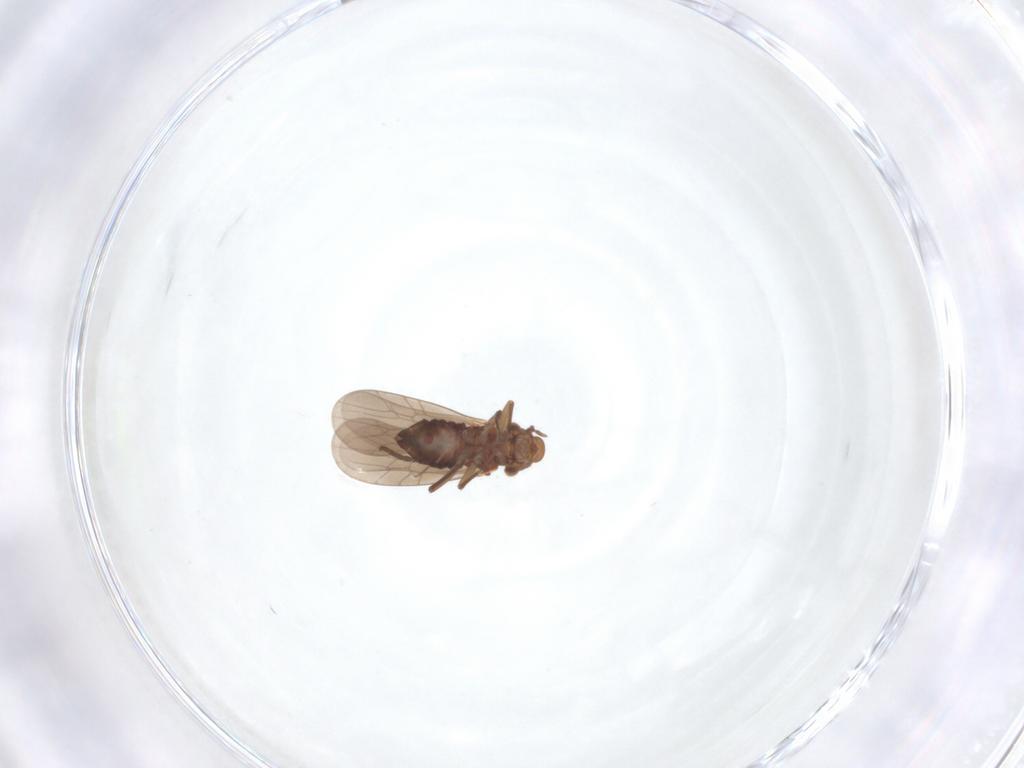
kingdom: Animalia
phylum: Arthropoda
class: Insecta
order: Psocodea
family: Lepidopsocidae
